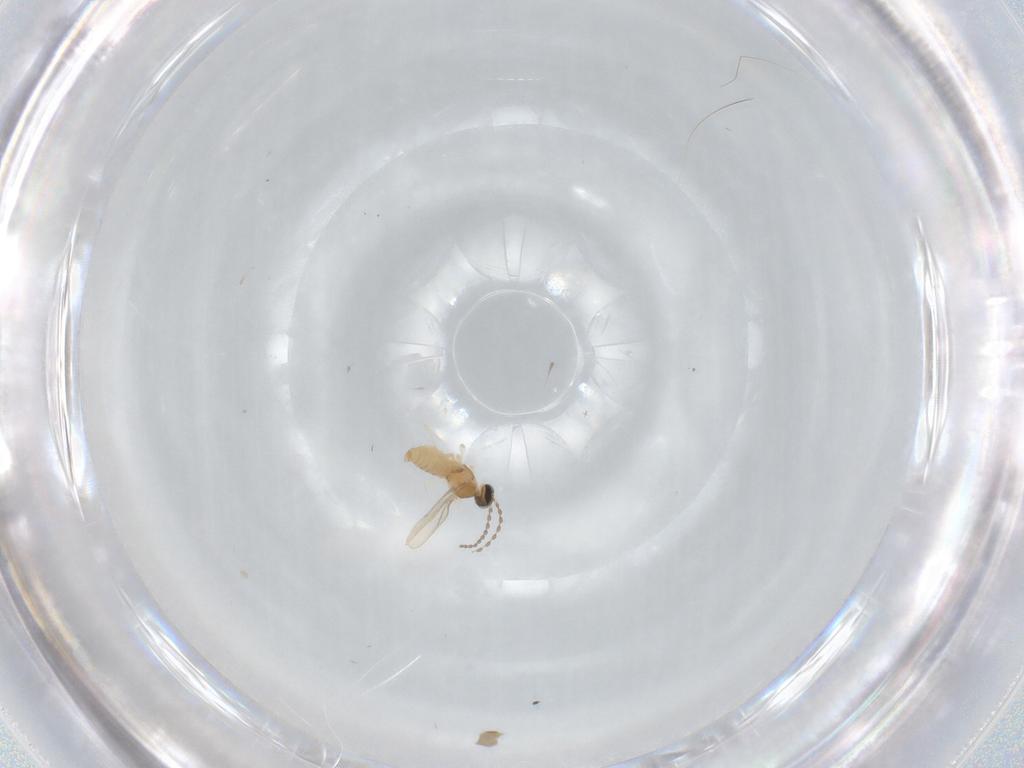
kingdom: Animalia
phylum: Arthropoda
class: Insecta
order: Diptera
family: Cecidomyiidae
